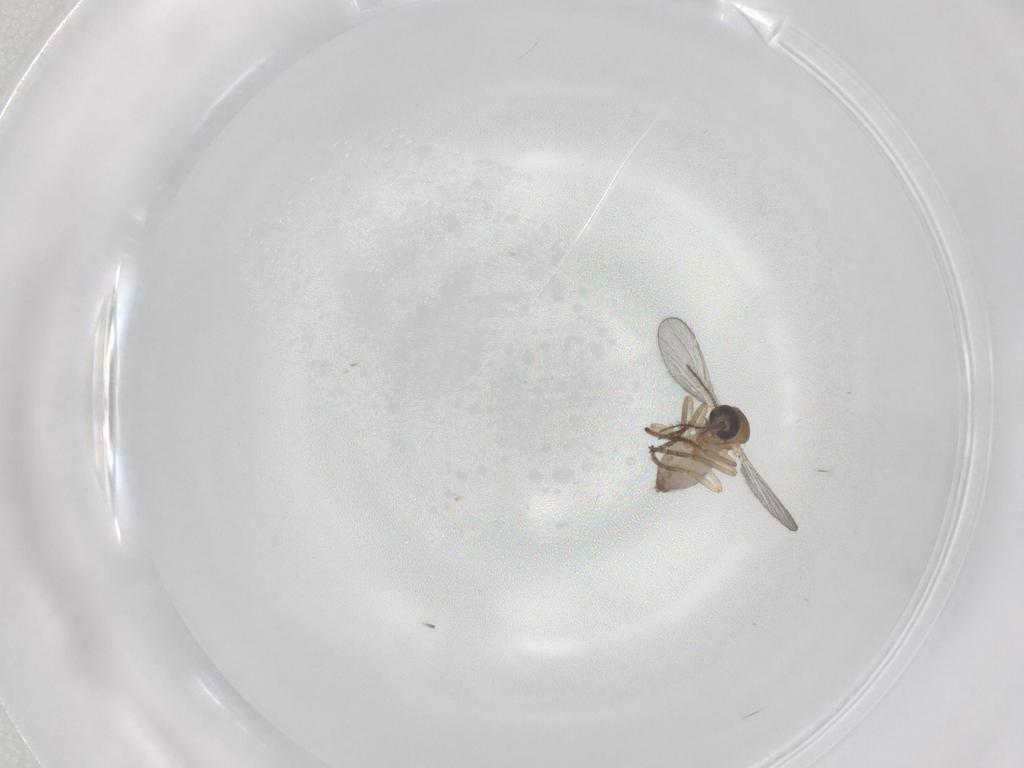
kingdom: Animalia
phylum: Arthropoda
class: Insecta
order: Diptera
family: Ceratopogonidae
